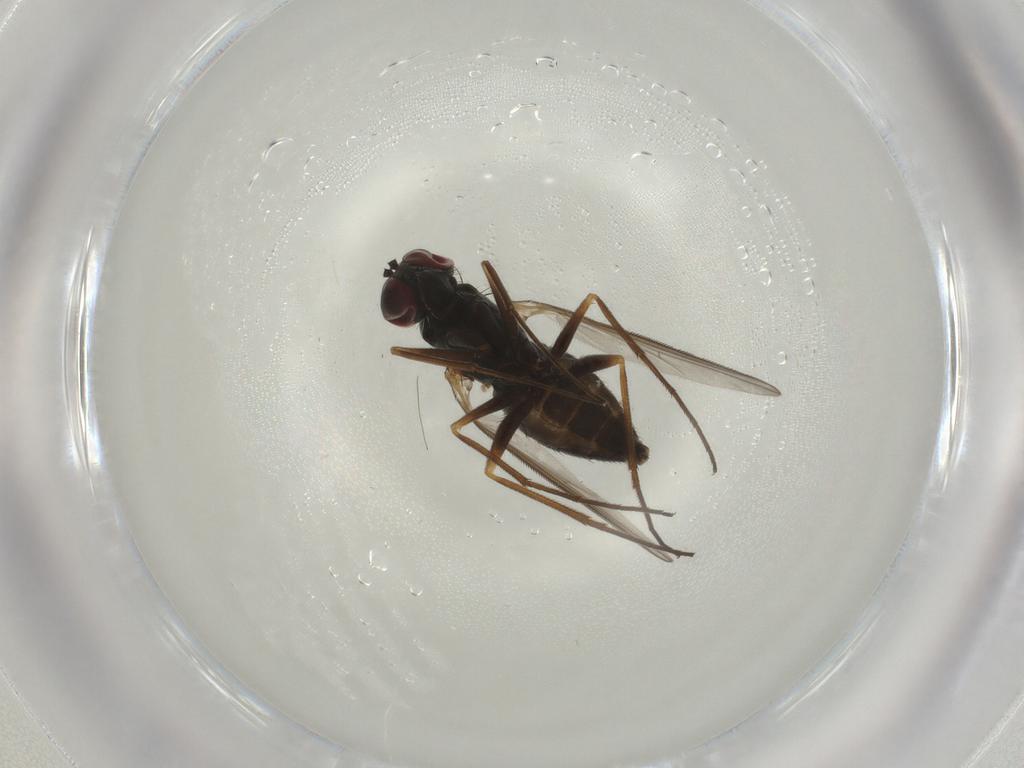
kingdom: Animalia
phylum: Arthropoda
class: Insecta
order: Diptera
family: Dolichopodidae
